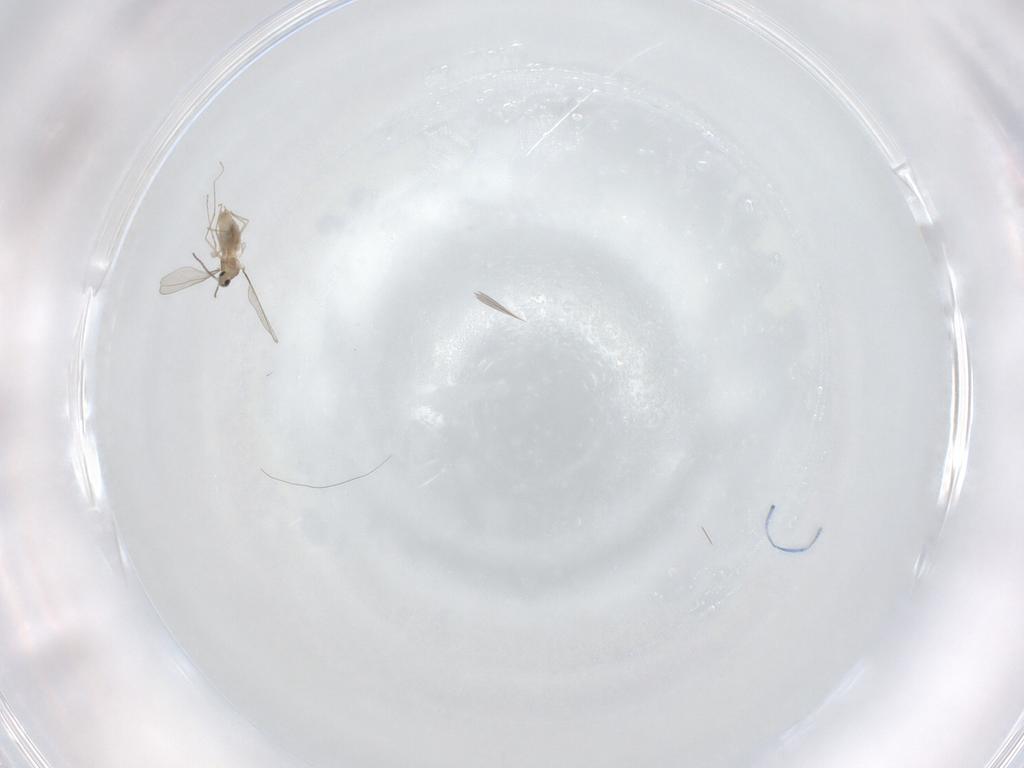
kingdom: Animalia
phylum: Arthropoda
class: Insecta
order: Diptera
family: Cecidomyiidae
